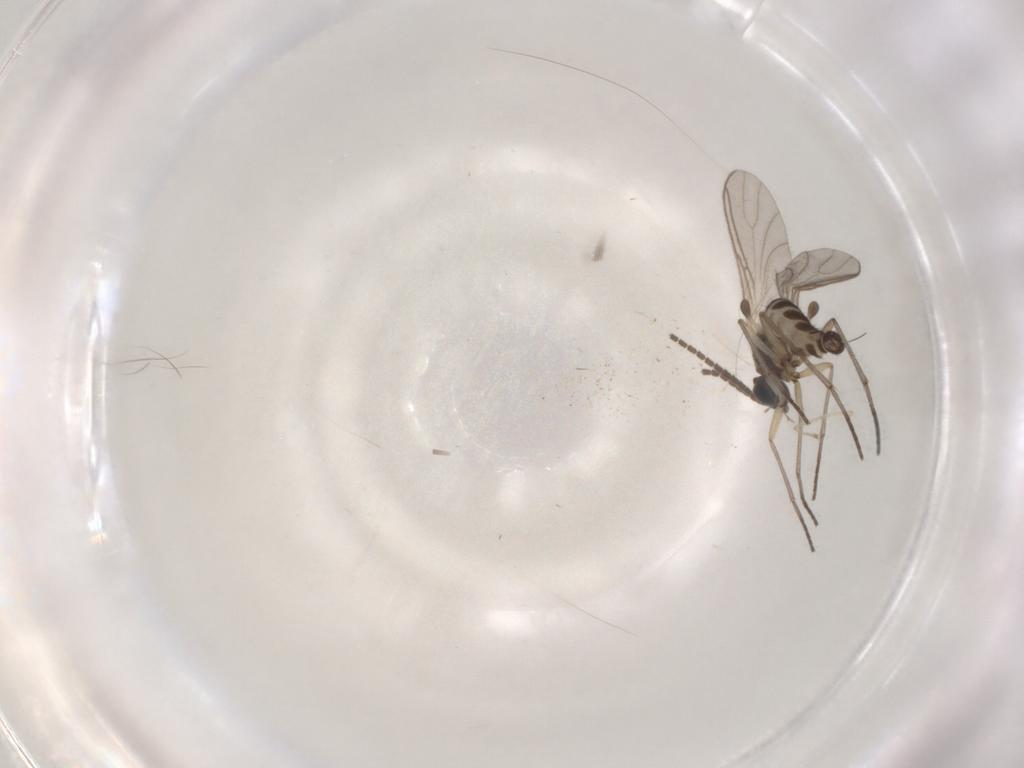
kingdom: Animalia
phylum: Arthropoda
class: Insecta
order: Diptera
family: Sciaridae
